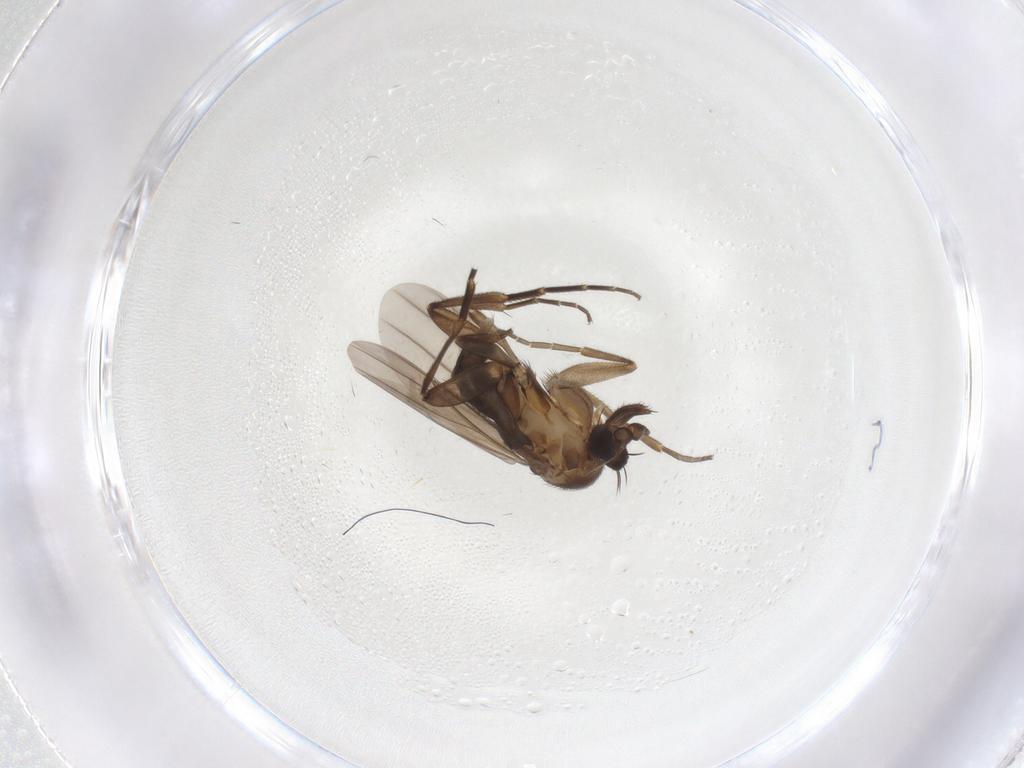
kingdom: Animalia
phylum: Arthropoda
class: Insecta
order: Diptera
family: Phoridae
